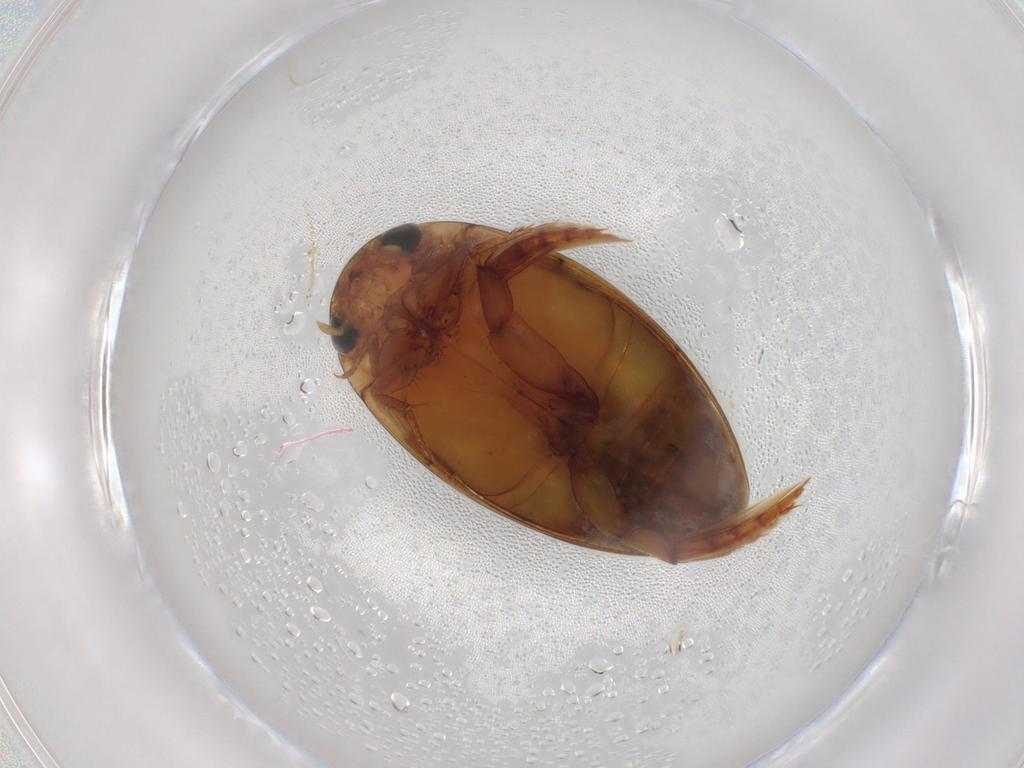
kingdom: Animalia
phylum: Arthropoda
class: Insecta
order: Coleoptera
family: Dytiscidae
